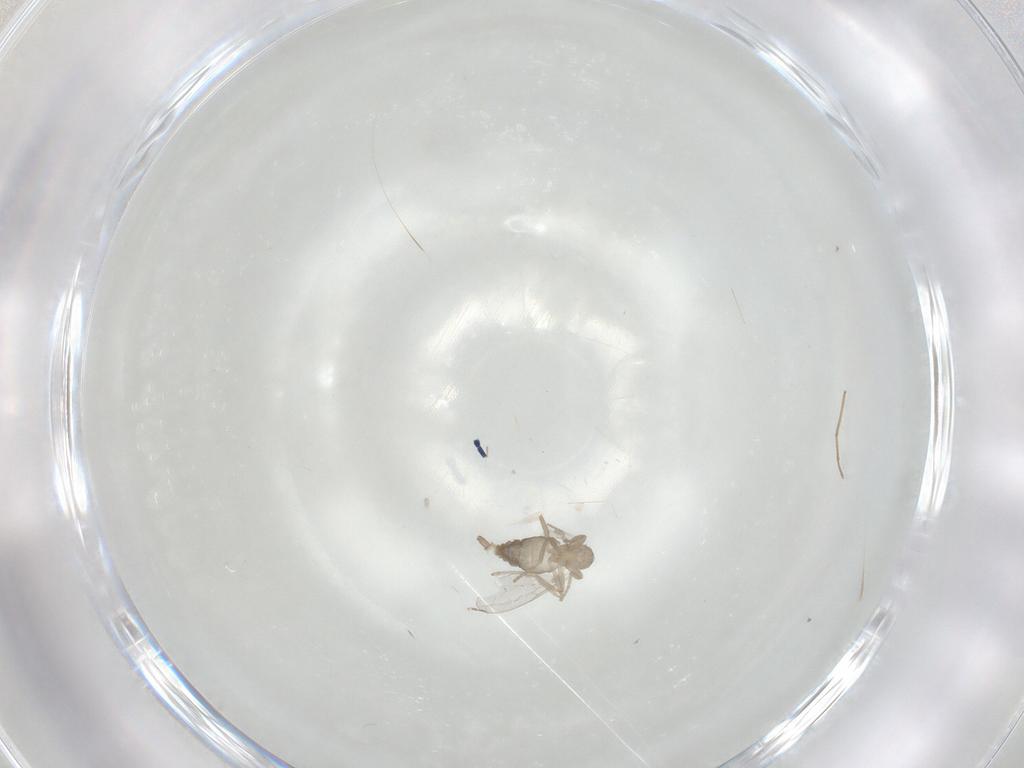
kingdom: Animalia
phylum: Arthropoda
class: Insecta
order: Diptera
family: Cecidomyiidae
